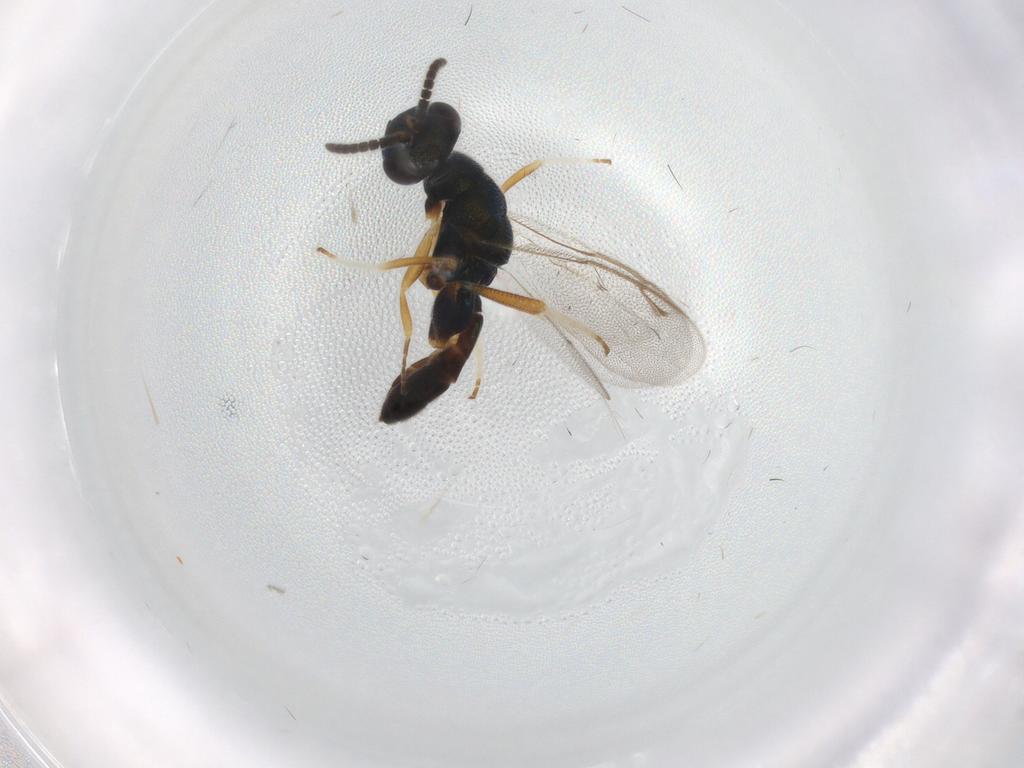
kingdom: Animalia
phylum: Arthropoda
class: Insecta
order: Hymenoptera
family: Cleonyminae
